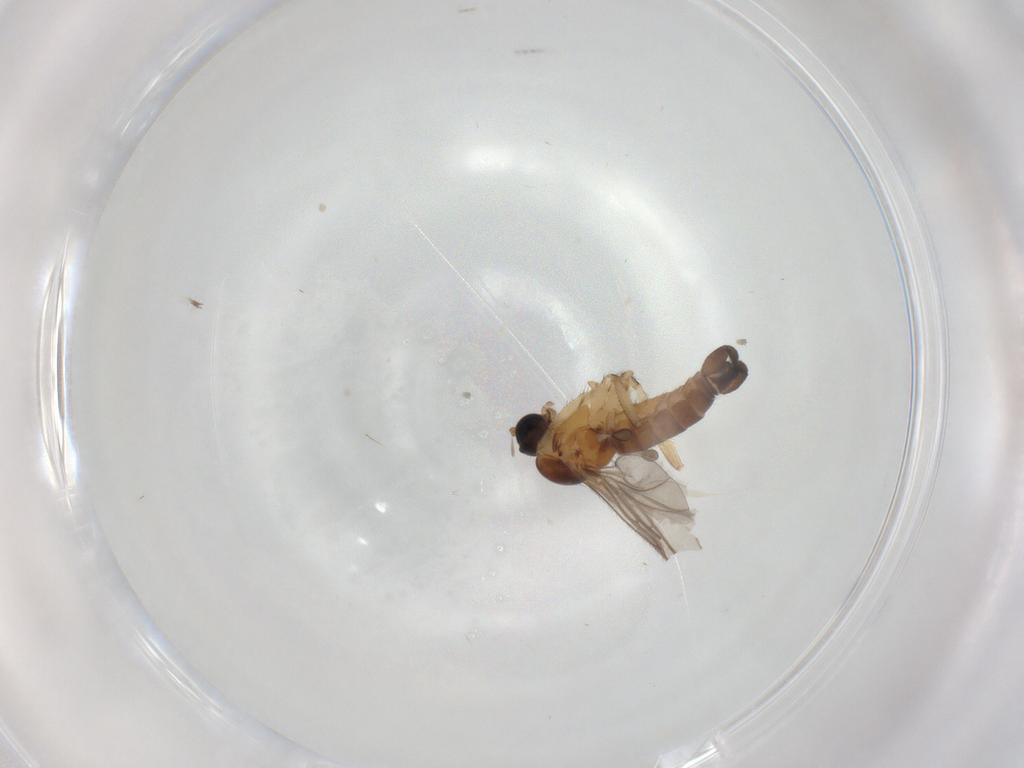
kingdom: Animalia
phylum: Arthropoda
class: Insecta
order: Diptera
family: Sciaridae
